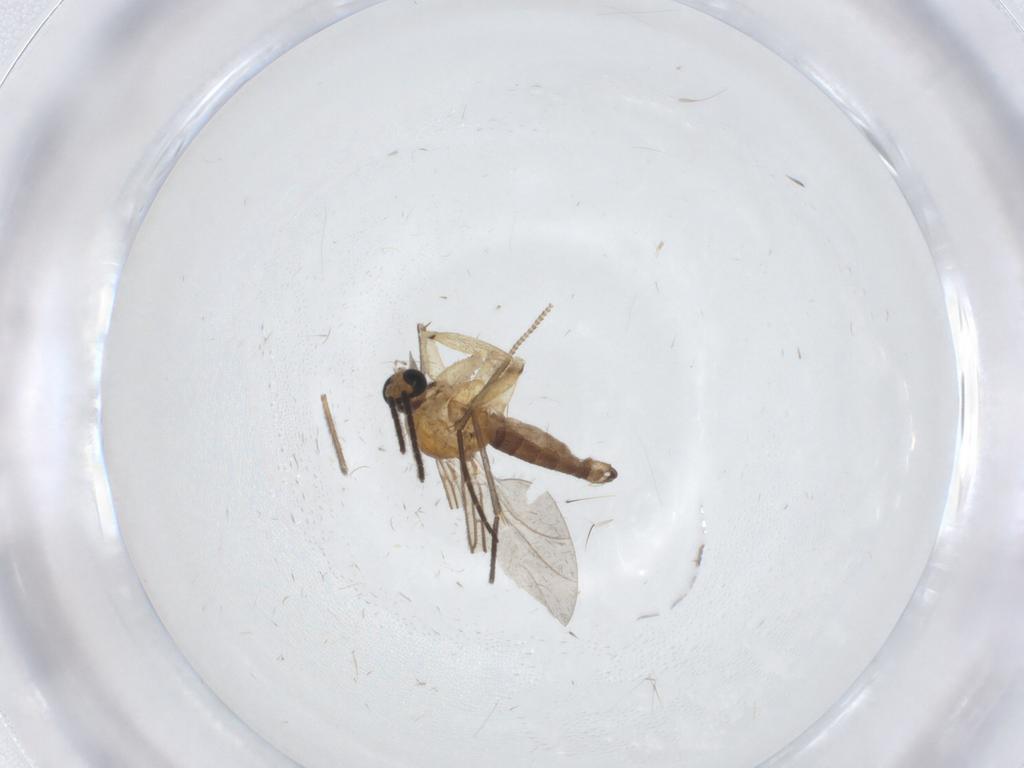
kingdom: Animalia
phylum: Arthropoda
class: Insecta
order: Diptera
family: Sciaridae
